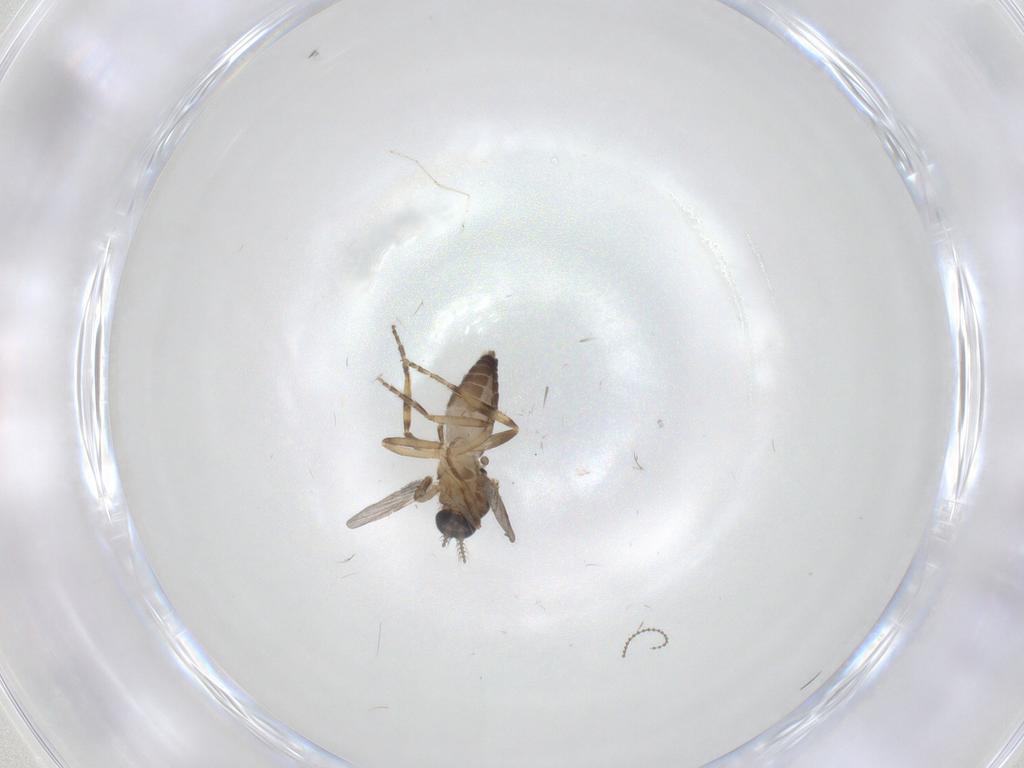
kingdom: Animalia
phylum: Arthropoda
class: Insecta
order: Diptera
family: Ceratopogonidae
